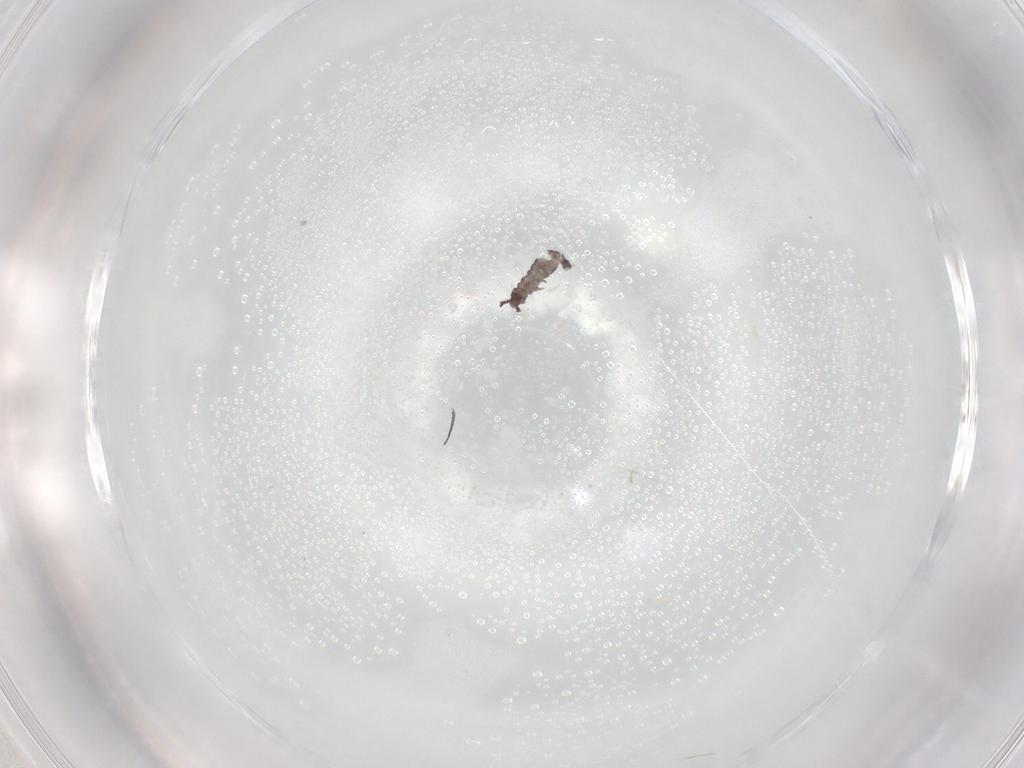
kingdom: Animalia
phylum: Arthropoda
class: Collembola
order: Poduromorpha
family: Hypogastruridae
